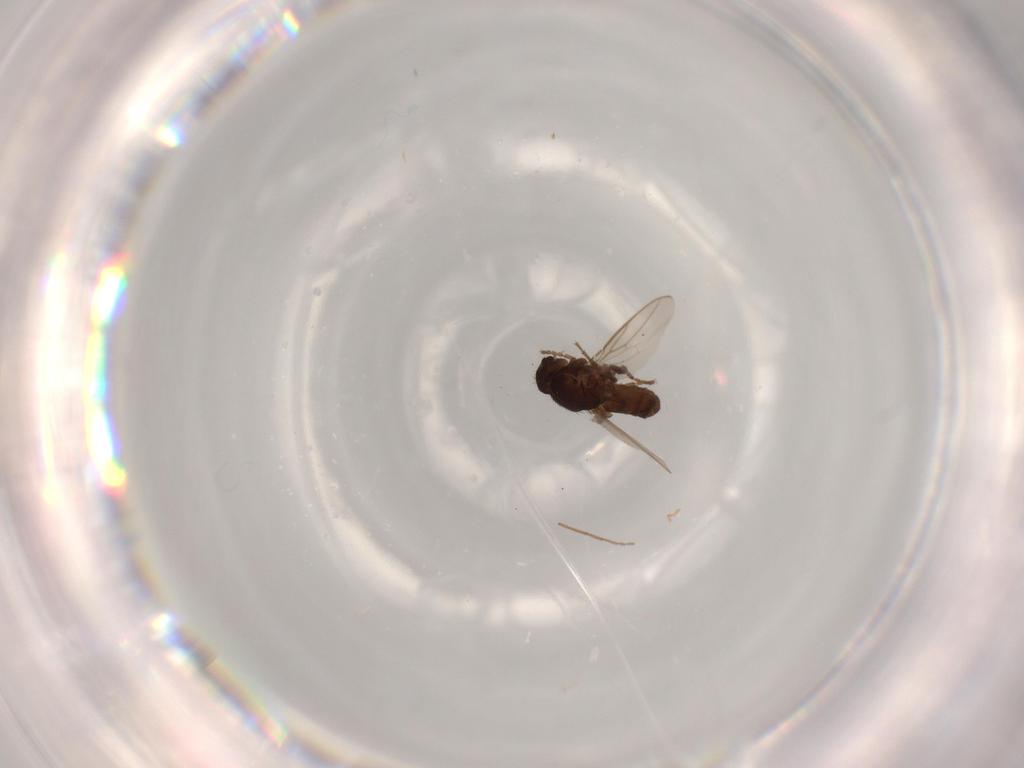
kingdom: Animalia
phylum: Arthropoda
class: Insecta
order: Diptera
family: Sphaeroceridae
